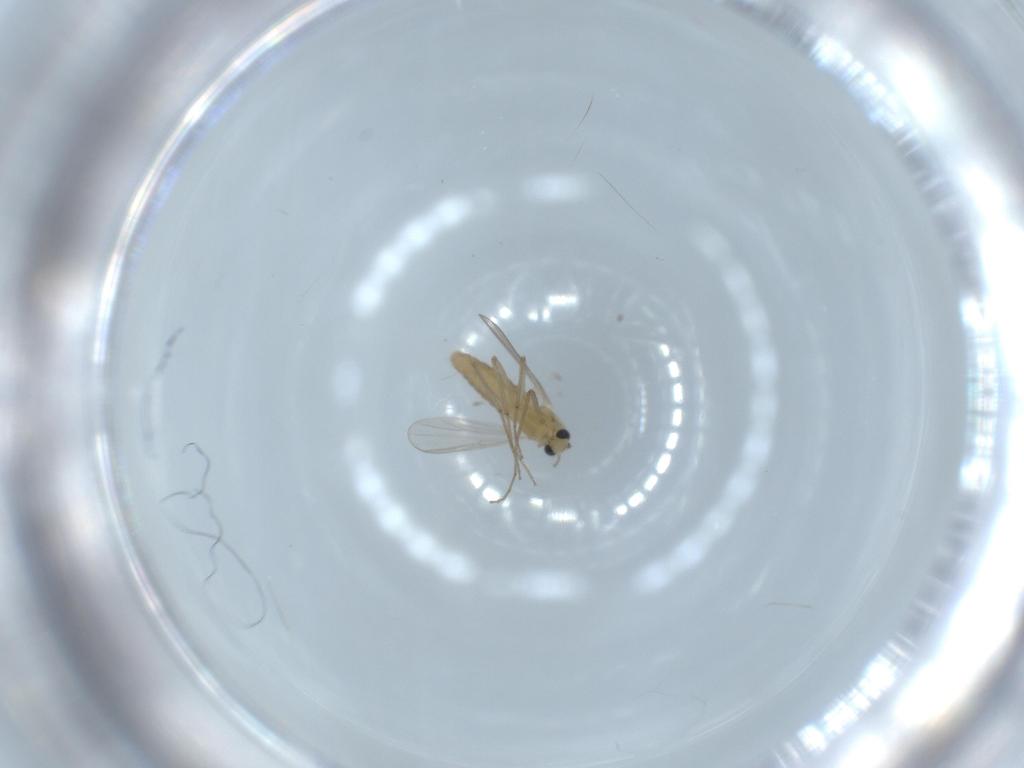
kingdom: Animalia
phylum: Arthropoda
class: Insecta
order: Diptera
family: Chironomidae
